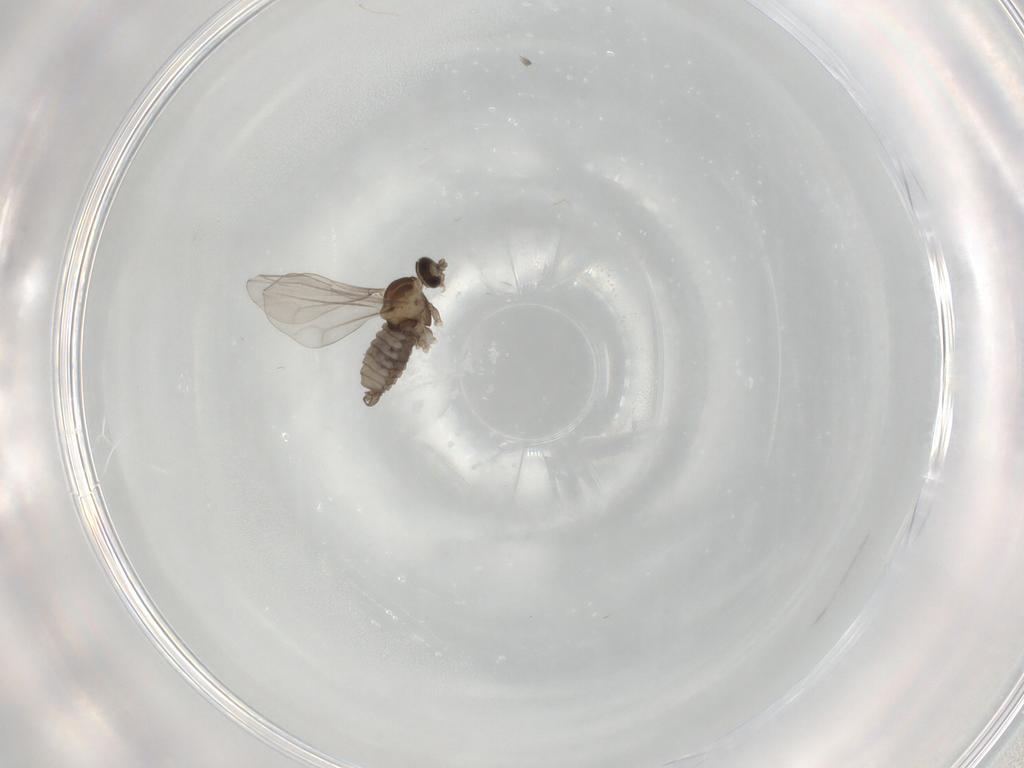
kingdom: Animalia
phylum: Arthropoda
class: Insecta
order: Diptera
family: Cecidomyiidae
